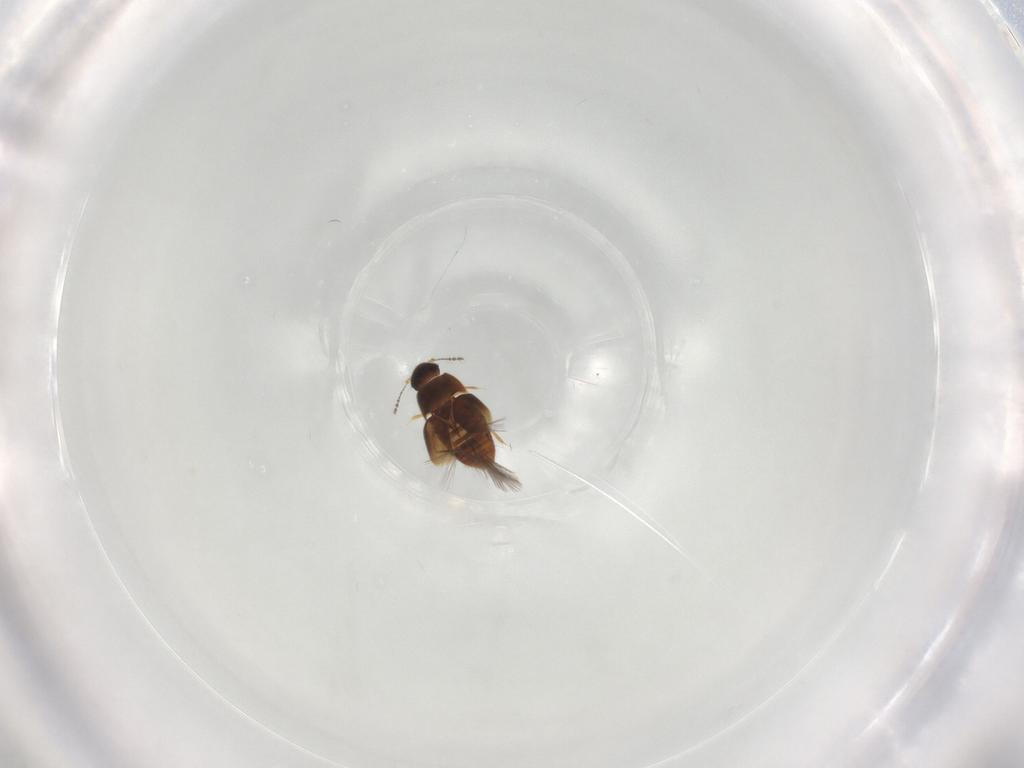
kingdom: Animalia
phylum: Arthropoda
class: Insecta
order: Coleoptera
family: Ptiliidae
